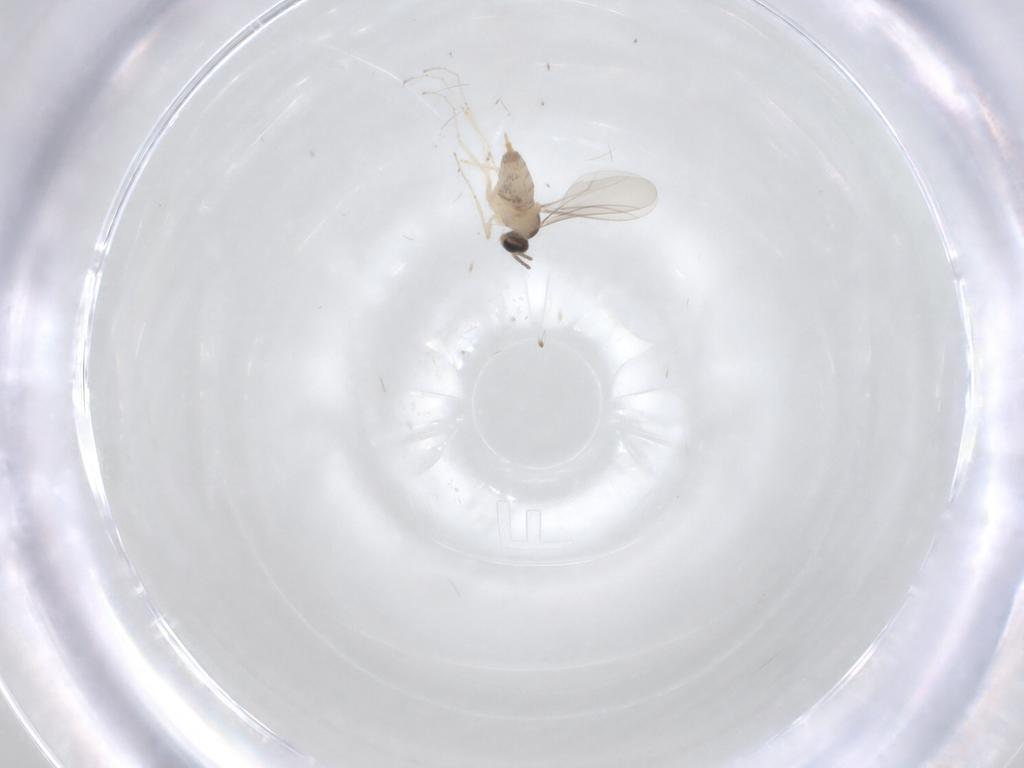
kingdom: Animalia
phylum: Arthropoda
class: Insecta
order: Diptera
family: Cecidomyiidae
